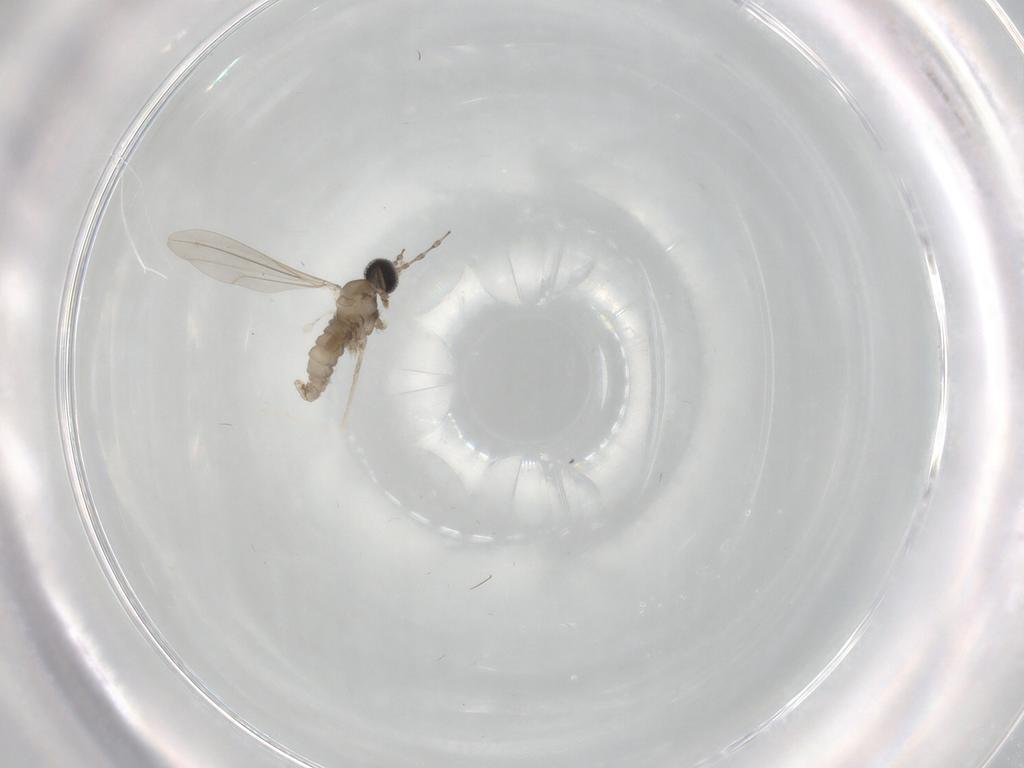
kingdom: Animalia
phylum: Arthropoda
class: Insecta
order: Diptera
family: Cecidomyiidae
